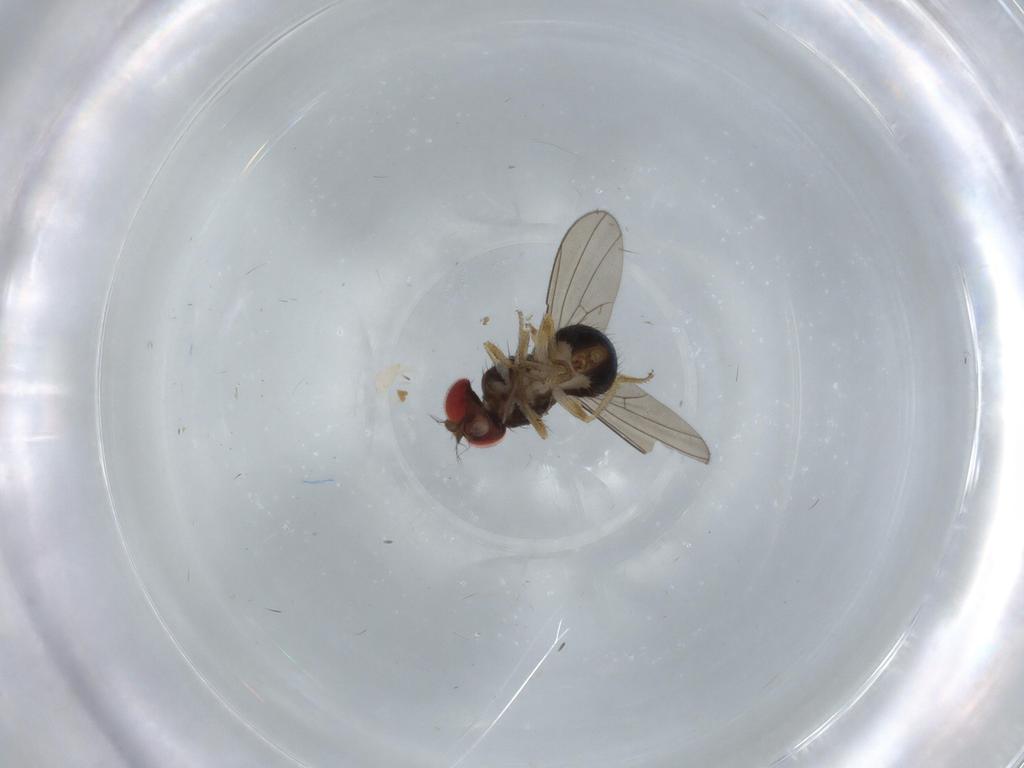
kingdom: Animalia
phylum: Arthropoda
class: Insecta
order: Diptera
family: Drosophilidae
